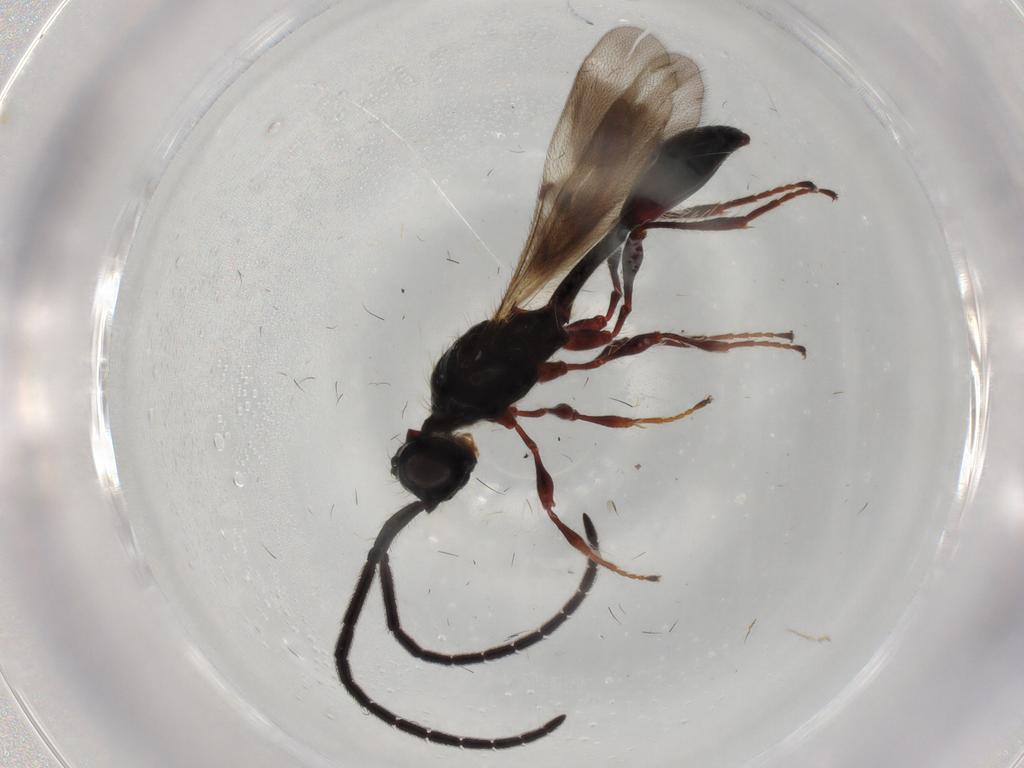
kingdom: Animalia
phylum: Arthropoda
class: Insecta
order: Hymenoptera
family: Diapriidae
